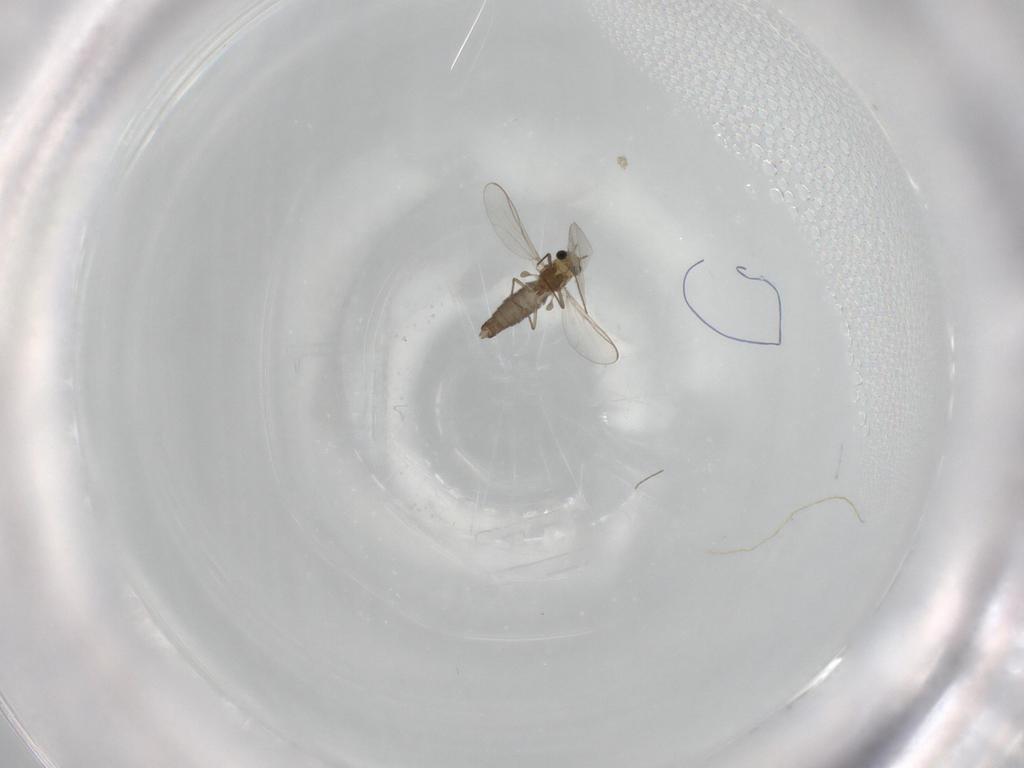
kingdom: Animalia
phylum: Arthropoda
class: Insecta
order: Diptera
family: Chironomidae
